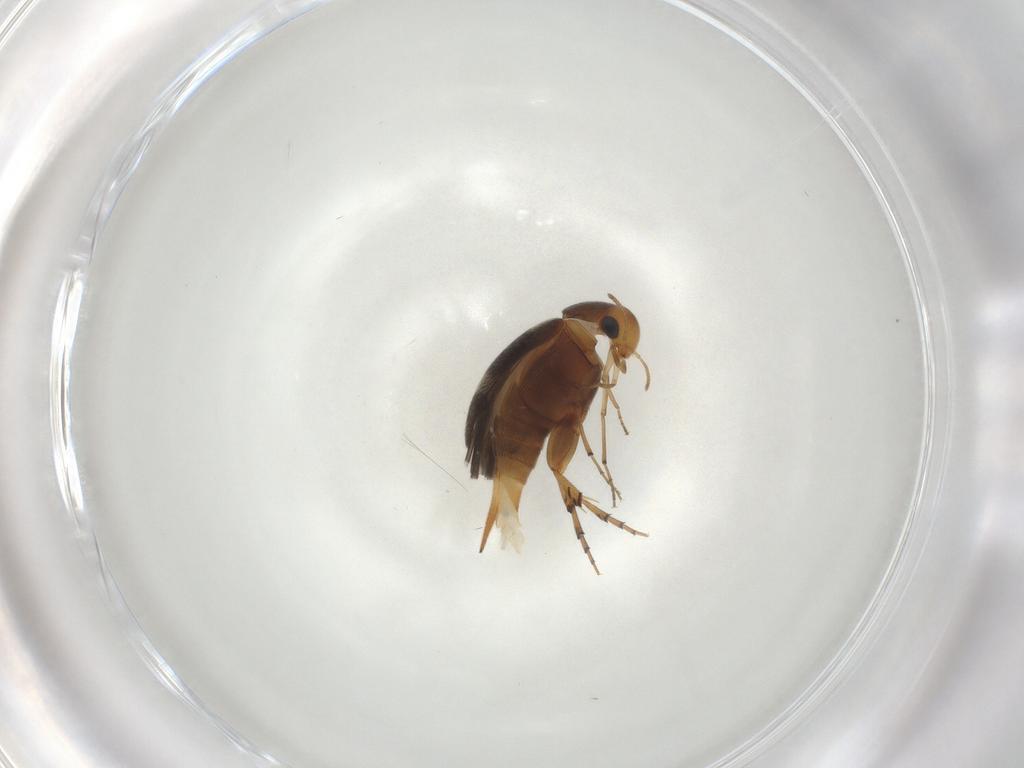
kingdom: Animalia
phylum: Arthropoda
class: Insecta
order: Coleoptera
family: Mordellidae
